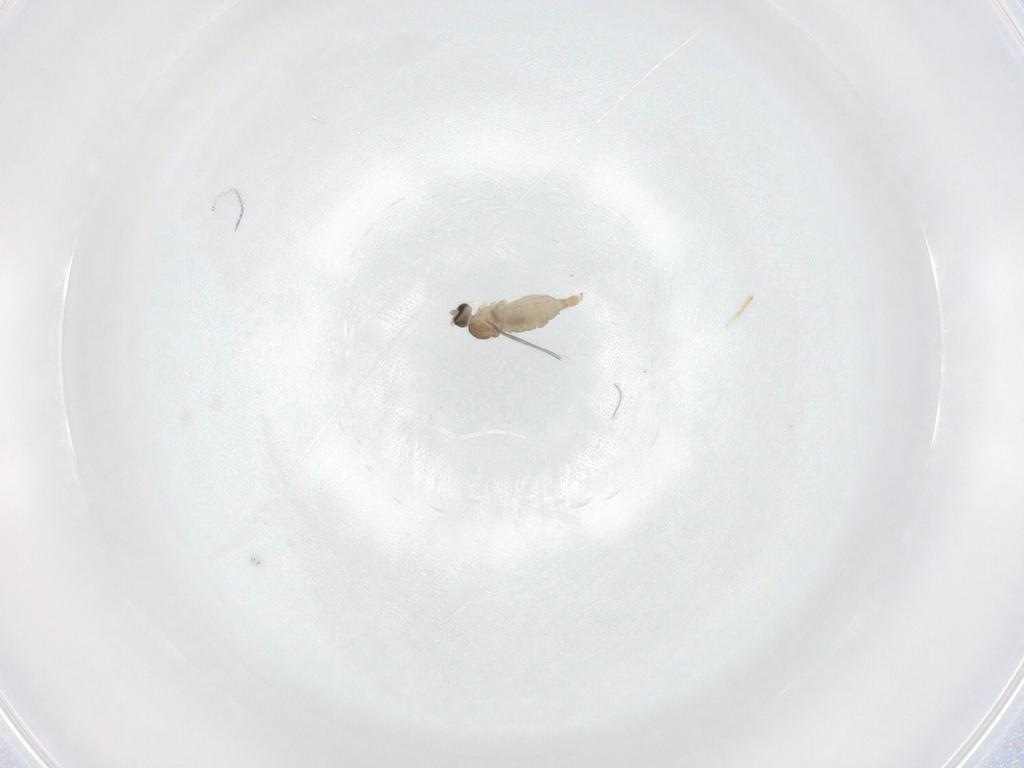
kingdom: Animalia
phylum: Arthropoda
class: Insecta
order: Diptera
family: Cecidomyiidae
